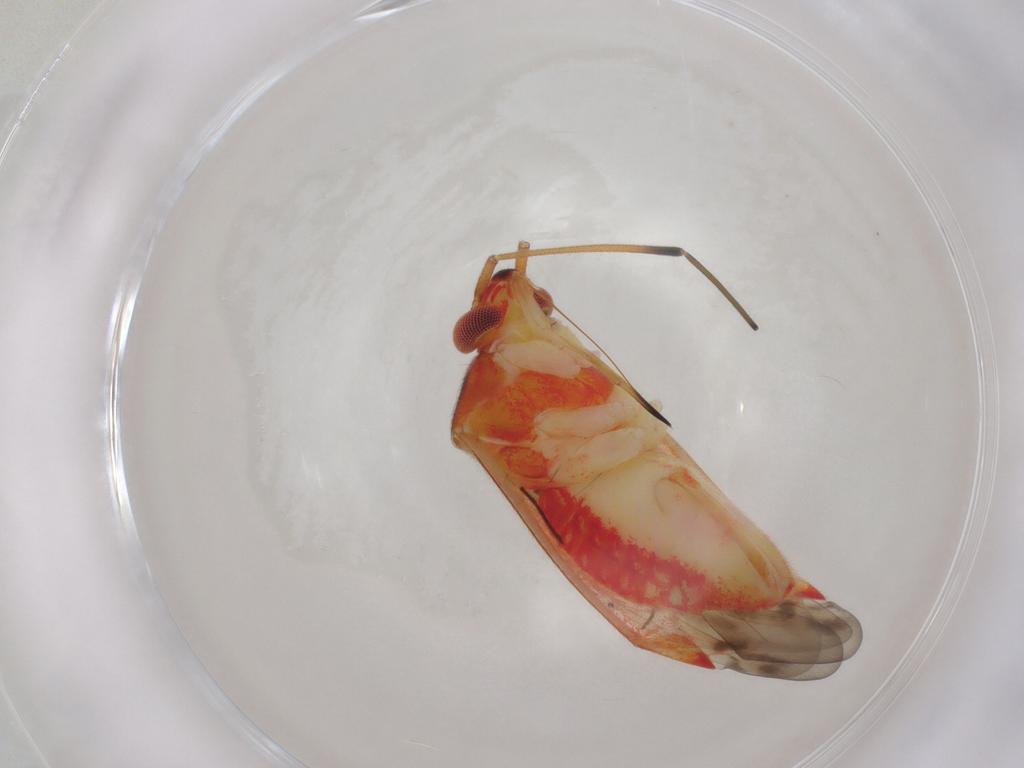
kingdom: Animalia
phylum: Arthropoda
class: Insecta
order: Hemiptera
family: Miridae
